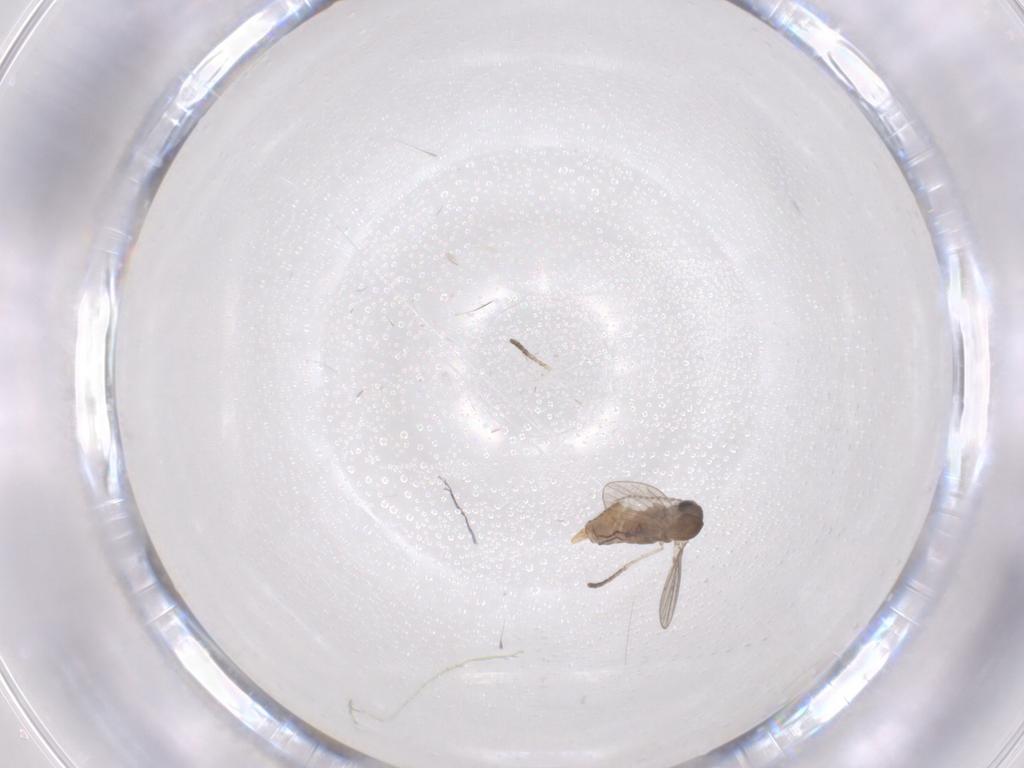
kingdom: Animalia
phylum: Arthropoda
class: Insecta
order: Diptera
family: Psychodidae
